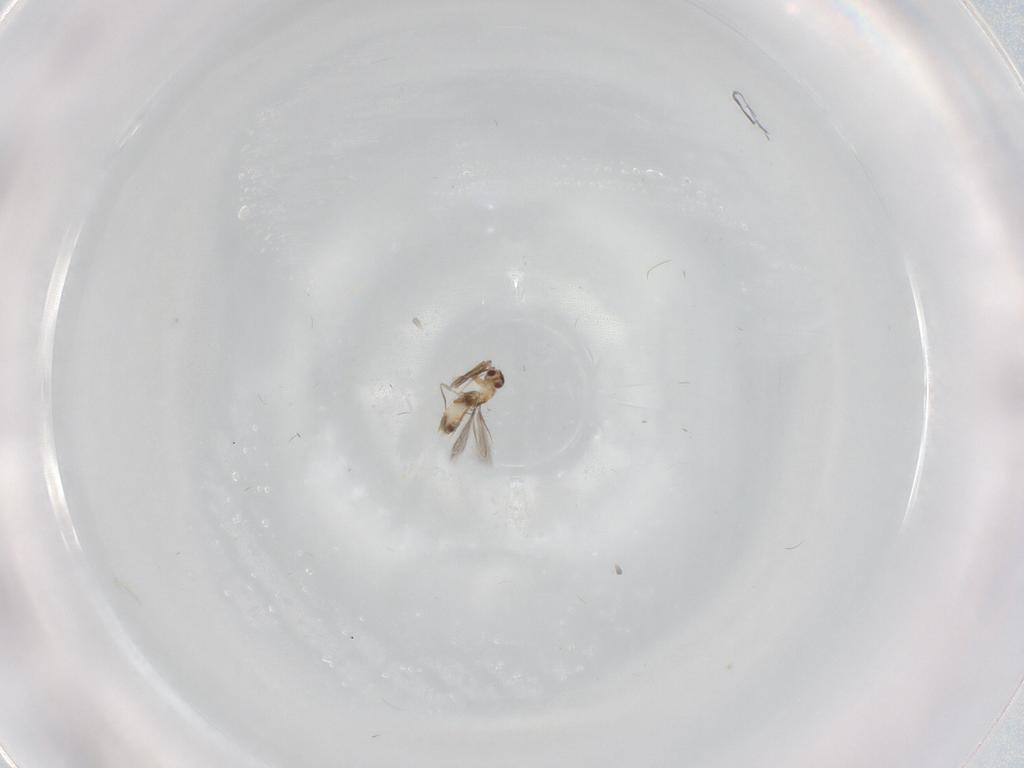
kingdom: Animalia
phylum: Arthropoda
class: Insecta
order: Hymenoptera
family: Mymaridae
